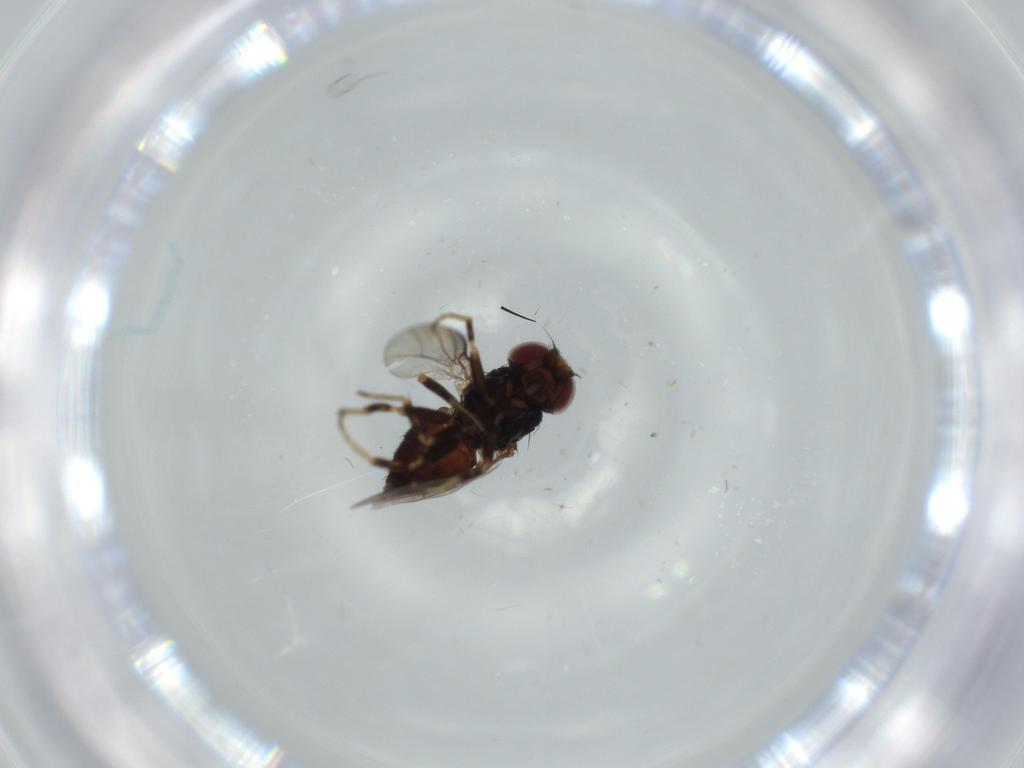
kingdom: Animalia
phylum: Arthropoda
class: Insecta
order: Diptera
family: Chloropidae
